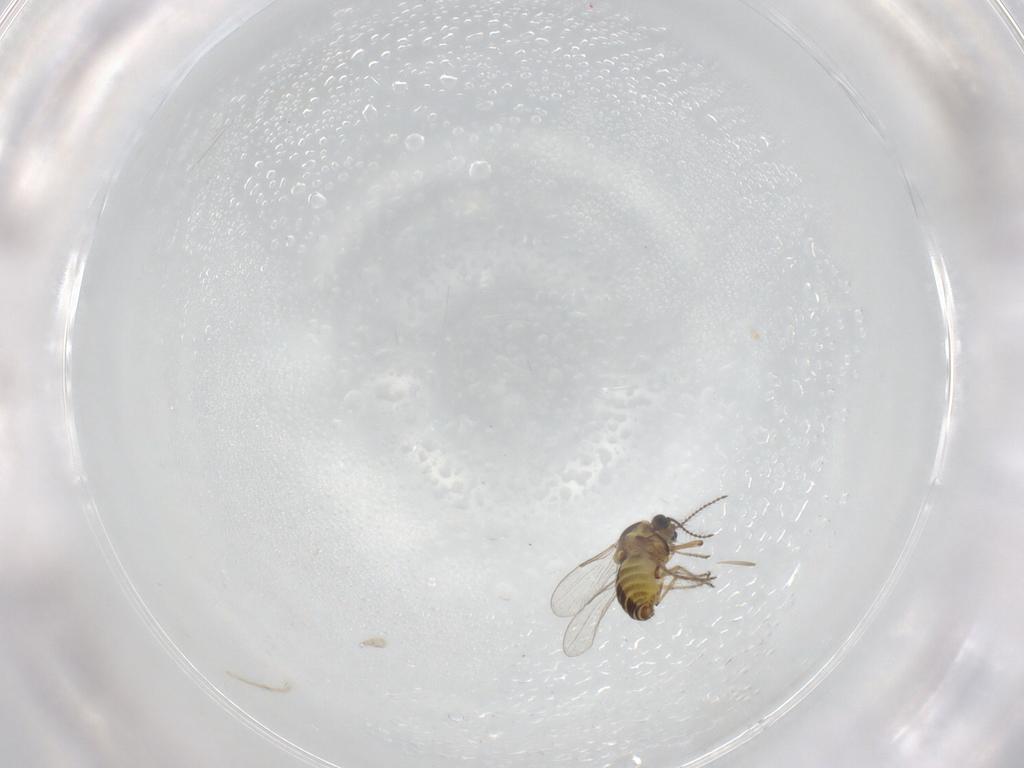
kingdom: Animalia
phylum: Arthropoda
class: Insecta
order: Diptera
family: Ceratopogonidae
